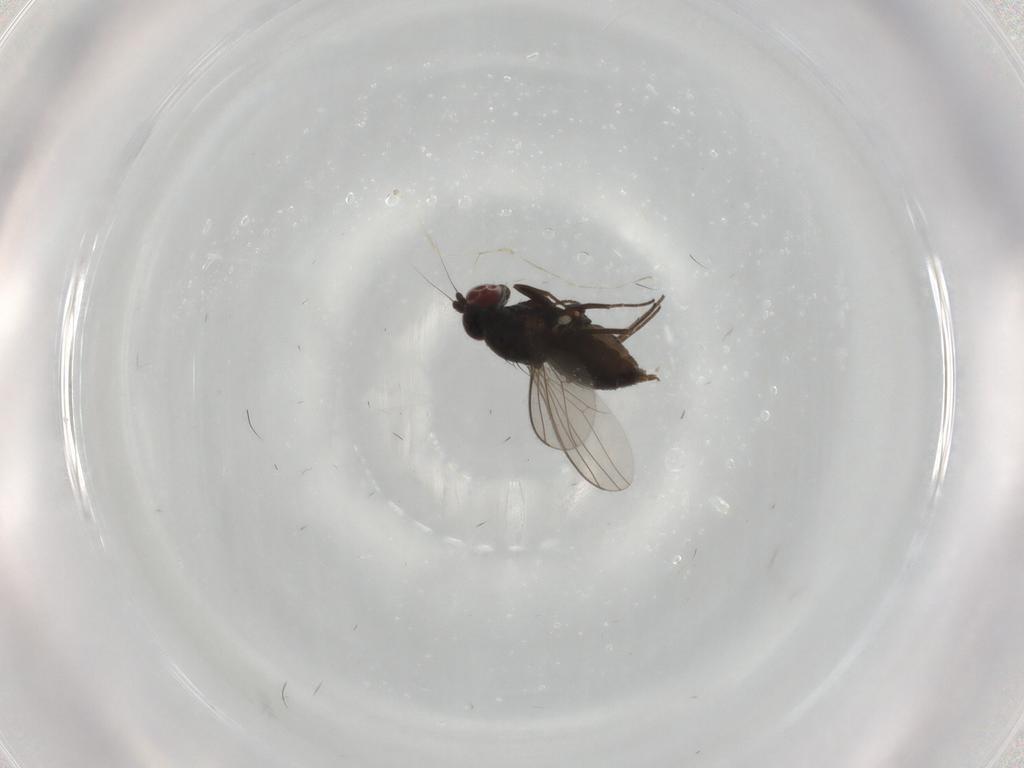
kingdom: Animalia
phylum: Arthropoda
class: Insecta
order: Diptera
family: Dolichopodidae
